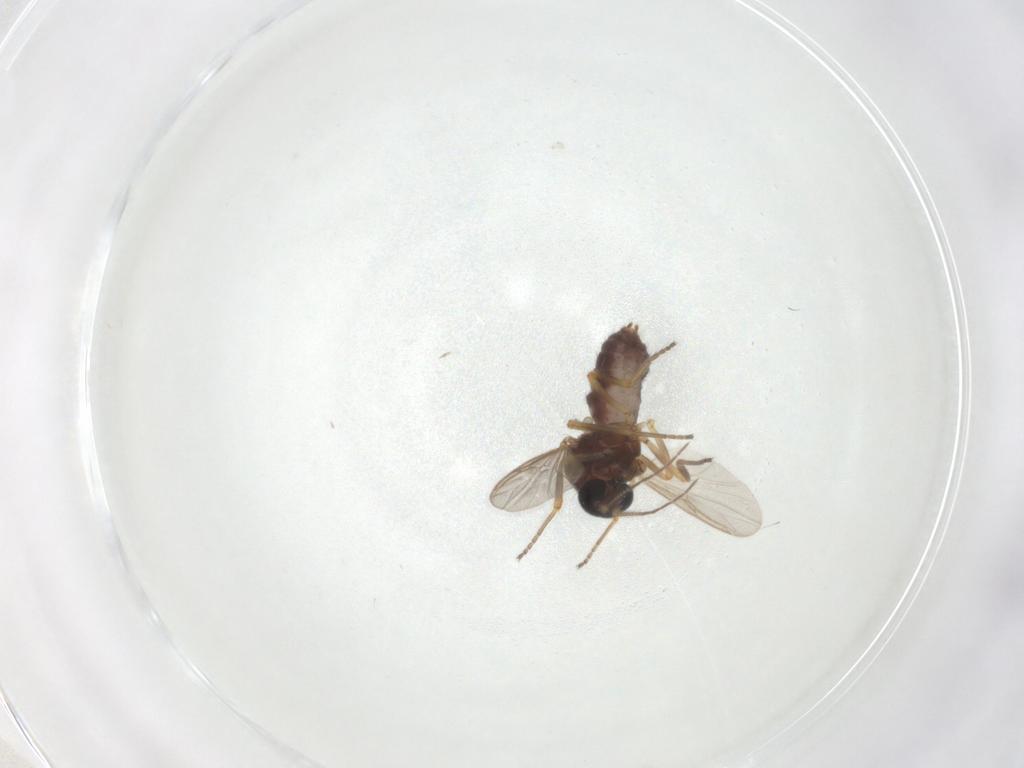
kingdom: Animalia
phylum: Arthropoda
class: Insecta
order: Diptera
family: Ceratopogonidae
